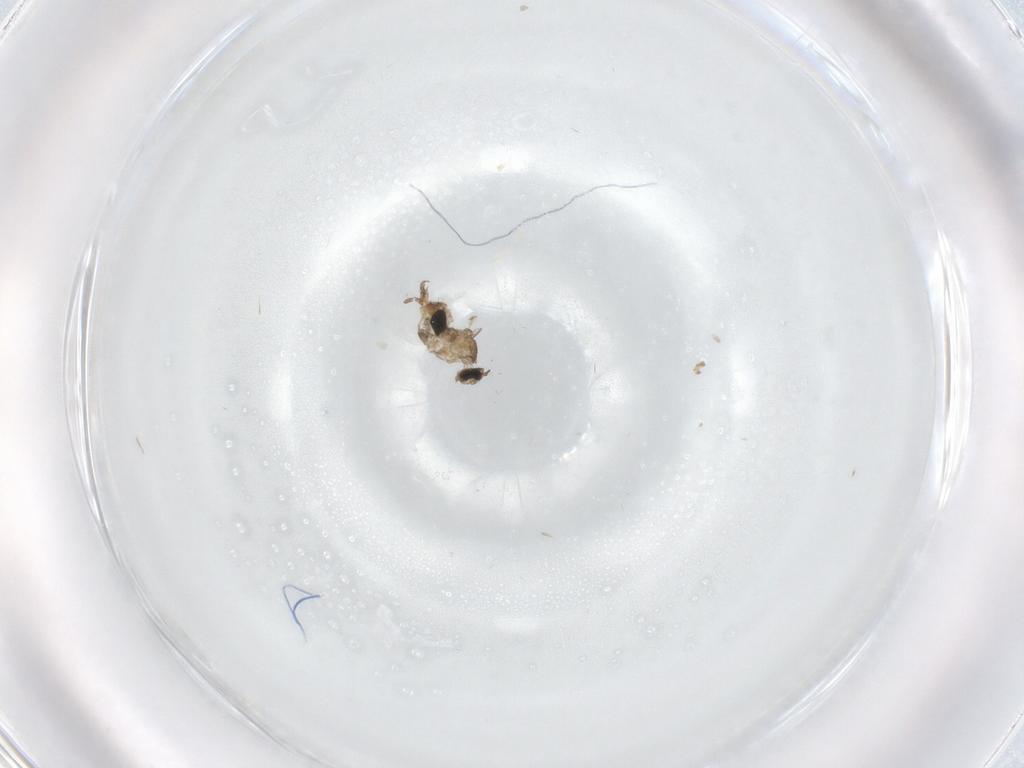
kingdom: Animalia
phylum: Arthropoda
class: Insecta
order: Diptera
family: Cecidomyiidae
